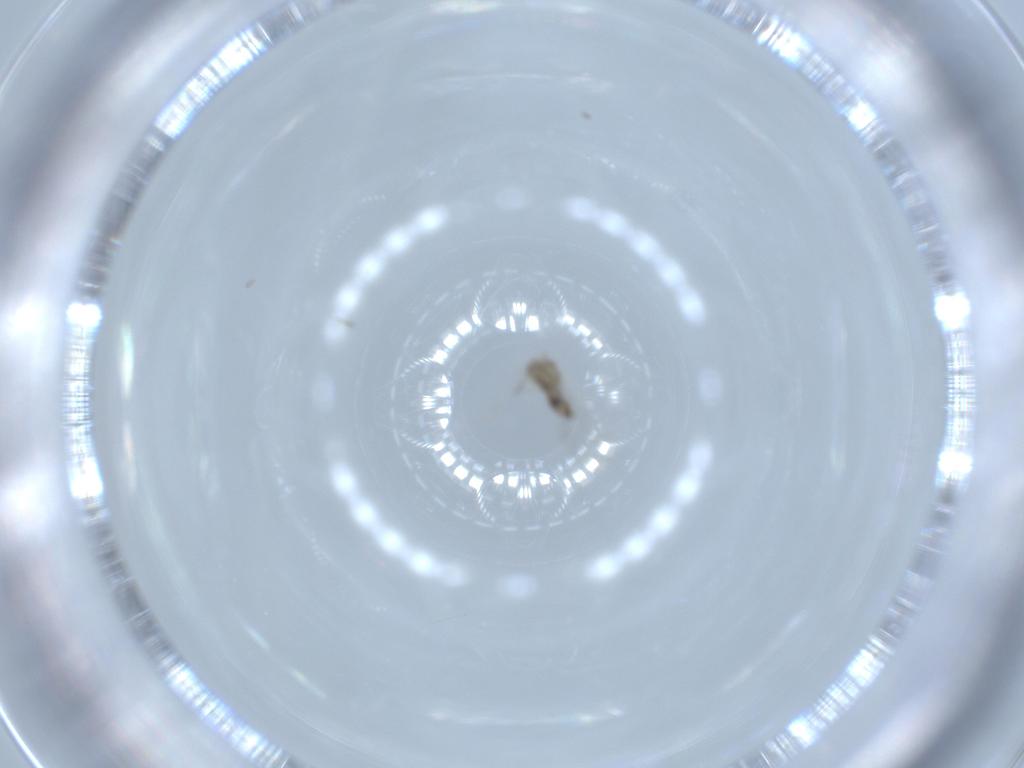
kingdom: Animalia
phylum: Arthropoda
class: Insecta
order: Diptera
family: Cecidomyiidae
